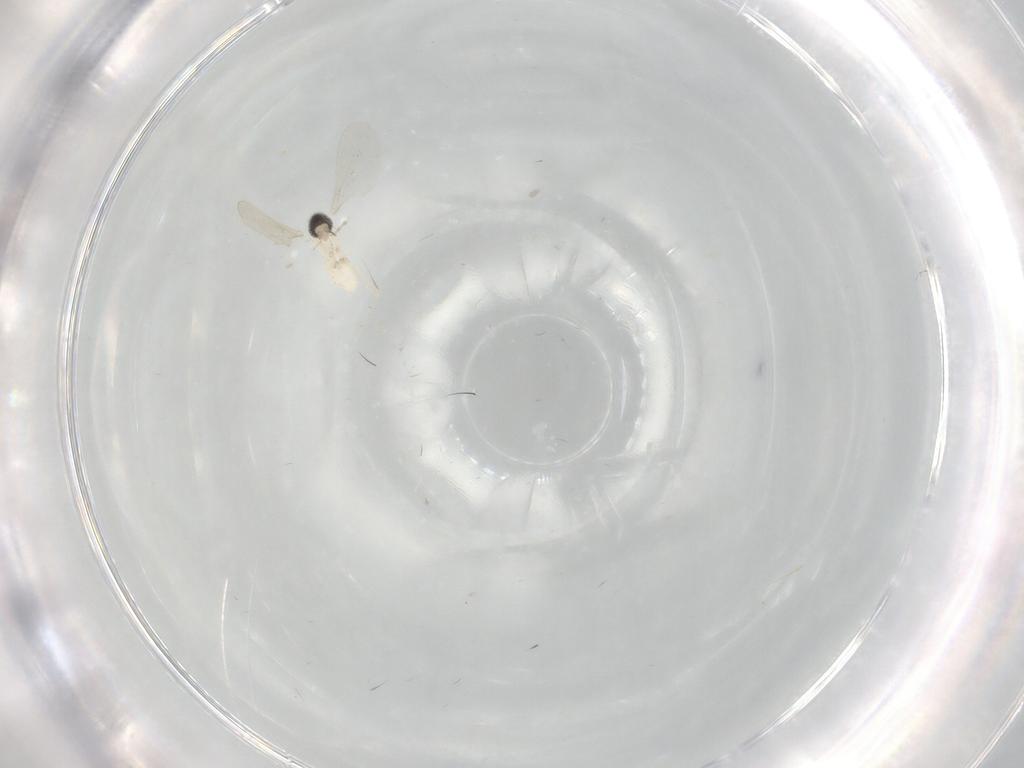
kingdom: Animalia
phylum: Arthropoda
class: Insecta
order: Diptera
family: Cecidomyiidae
